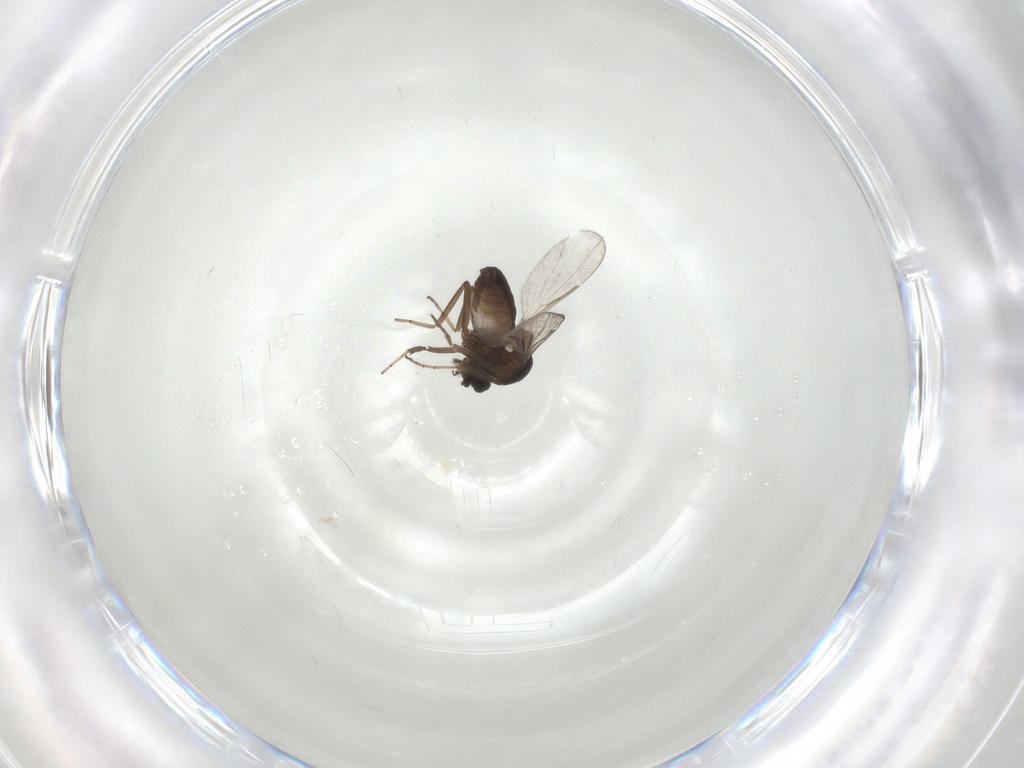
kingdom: Animalia
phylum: Arthropoda
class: Insecta
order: Diptera
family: Ceratopogonidae
